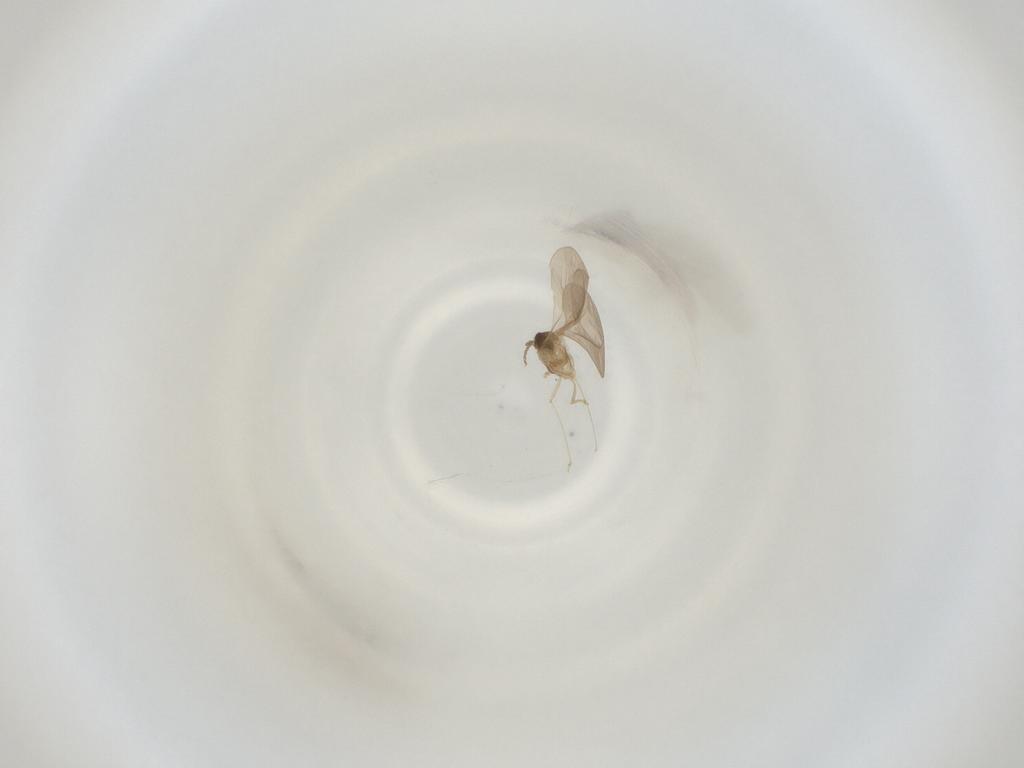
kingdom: Animalia
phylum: Arthropoda
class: Insecta
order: Diptera
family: Cecidomyiidae
